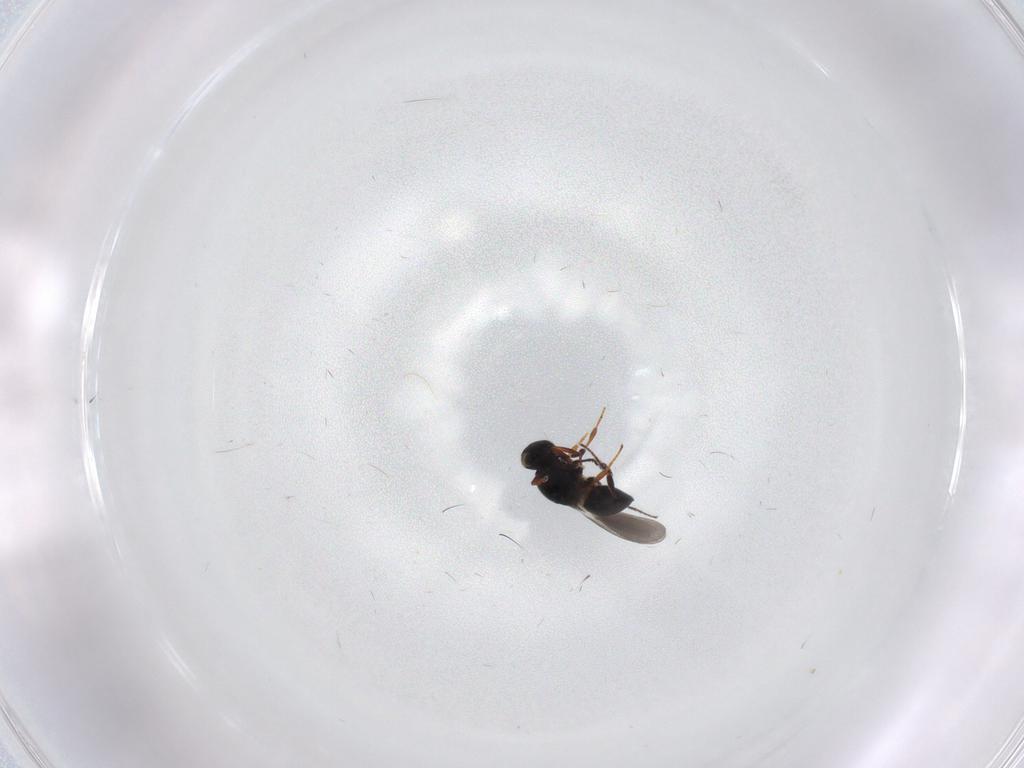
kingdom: Animalia
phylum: Arthropoda
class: Insecta
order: Hymenoptera
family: Platygastridae
